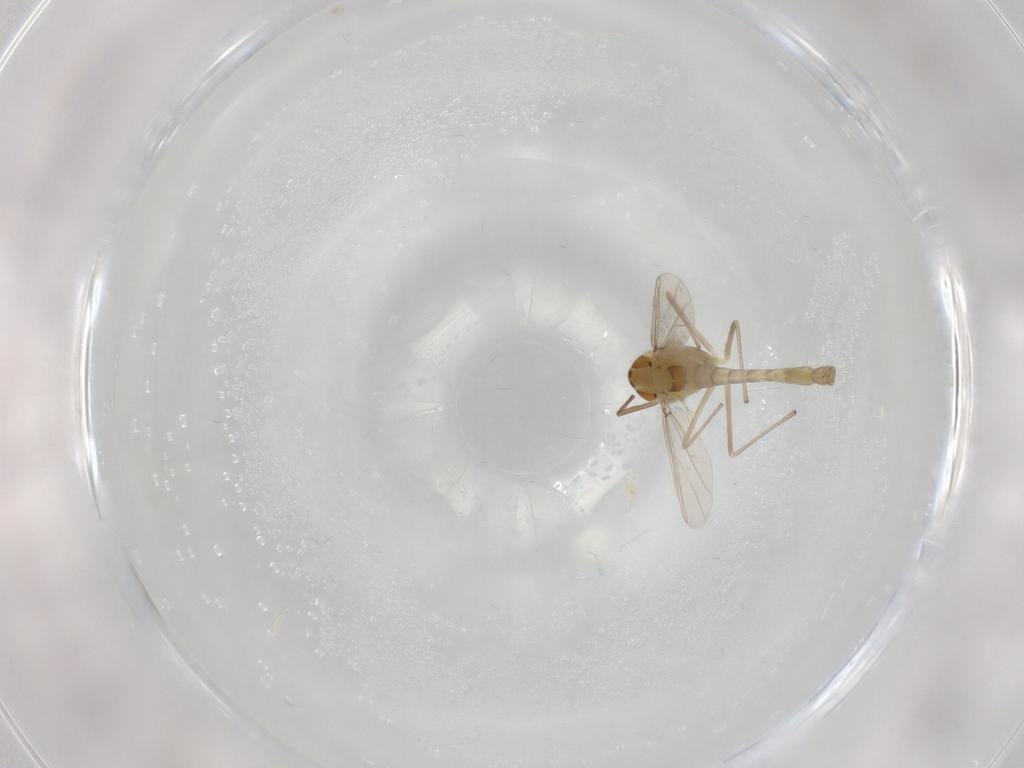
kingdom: Animalia
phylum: Arthropoda
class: Insecta
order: Diptera
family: Chironomidae
